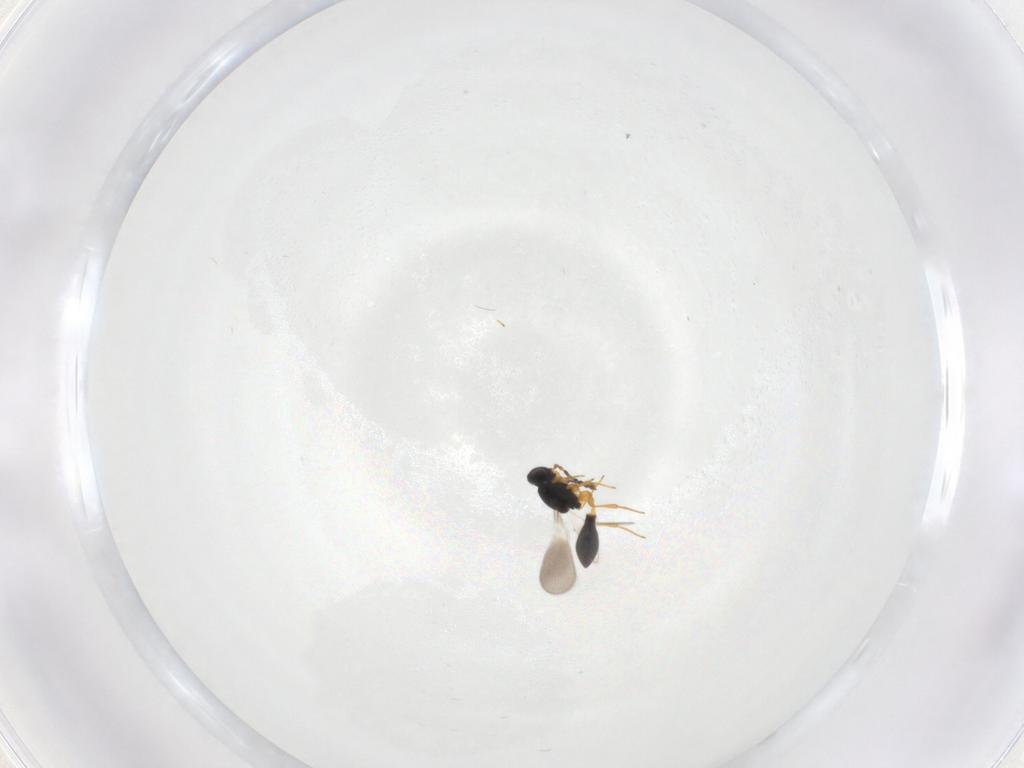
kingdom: Animalia
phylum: Arthropoda
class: Insecta
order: Hymenoptera
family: Platygastridae
